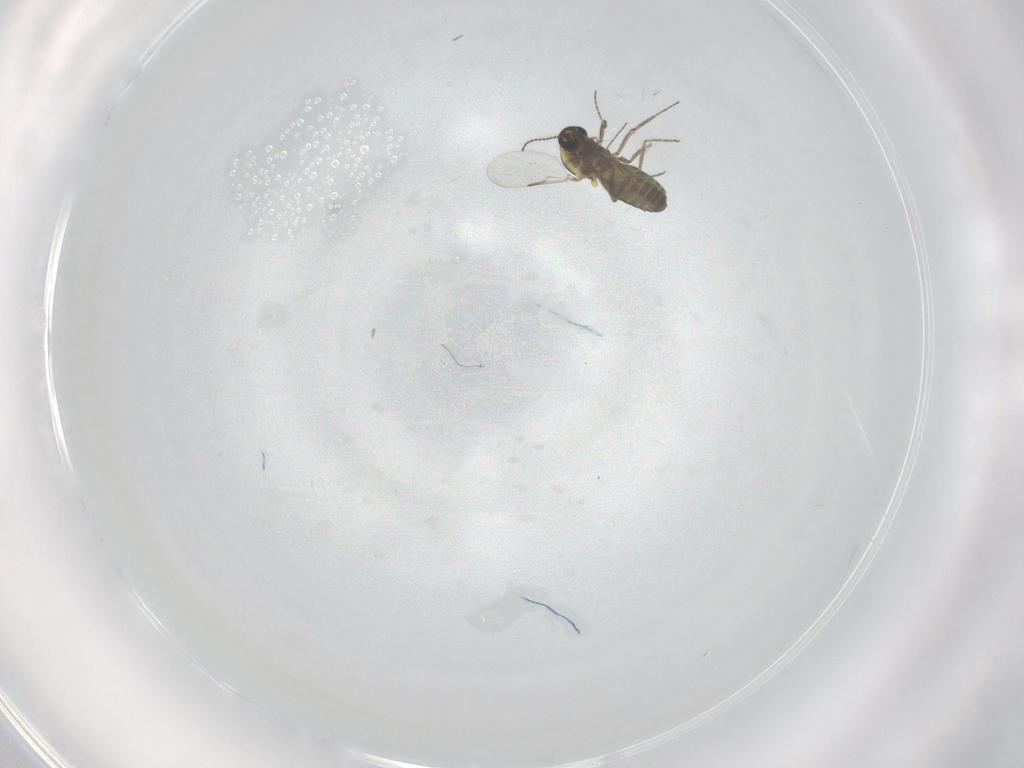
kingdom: Animalia
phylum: Arthropoda
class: Insecta
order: Diptera
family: Ceratopogonidae
